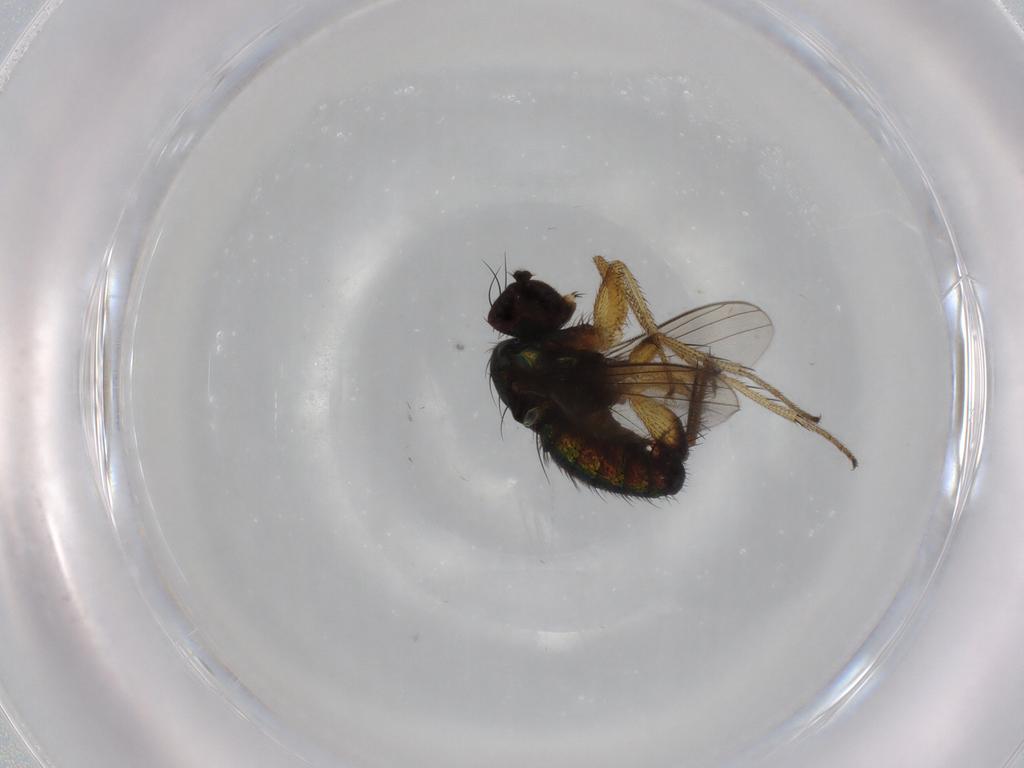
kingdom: Animalia
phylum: Arthropoda
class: Insecta
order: Diptera
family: Dolichopodidae
